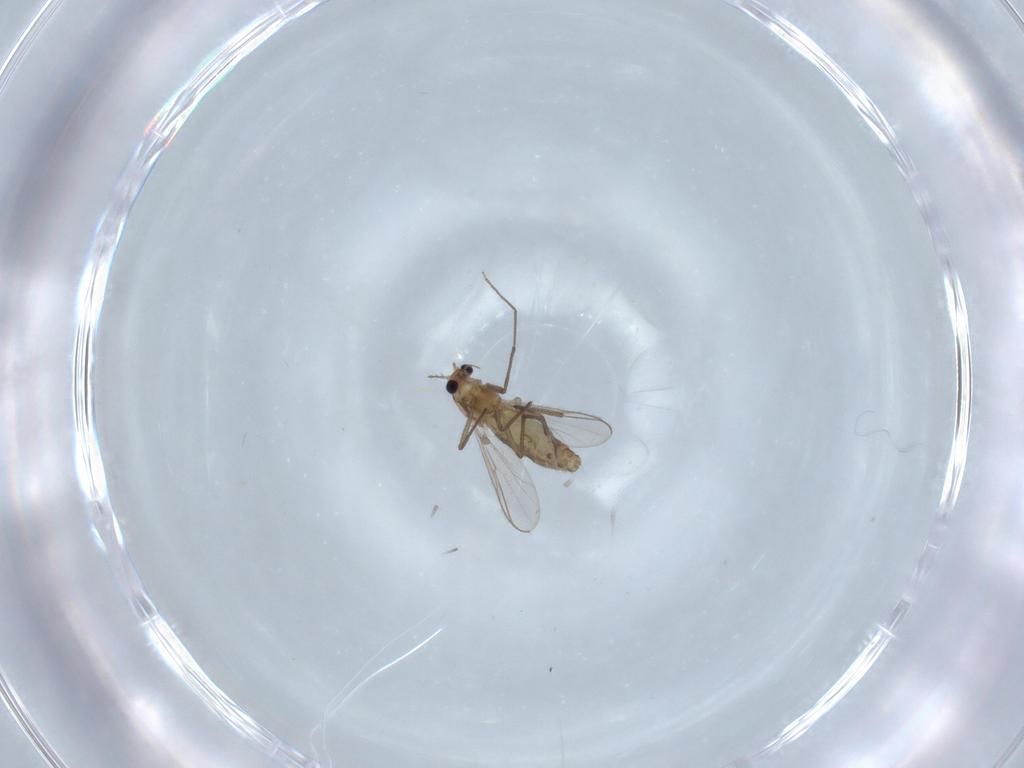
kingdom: Animalia
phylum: Arthropoda
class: Insecta
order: Diptera
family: Chironomidae
